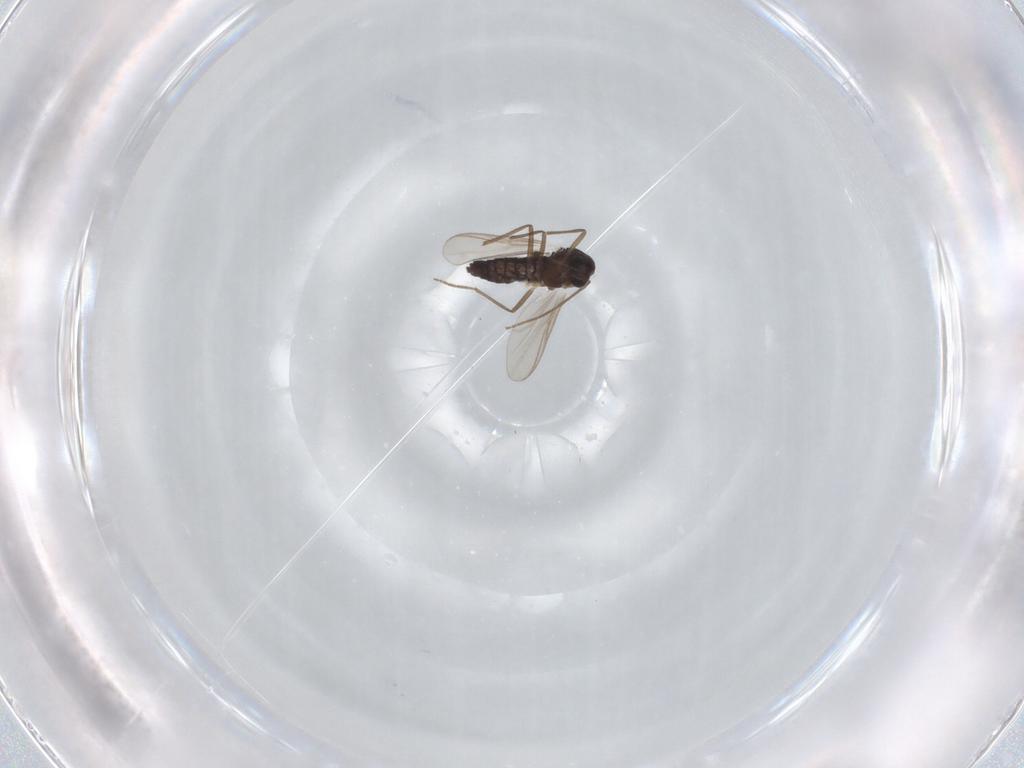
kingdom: Animalia
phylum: Arthropoda
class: Insecta
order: Diptera
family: Chironomidae
